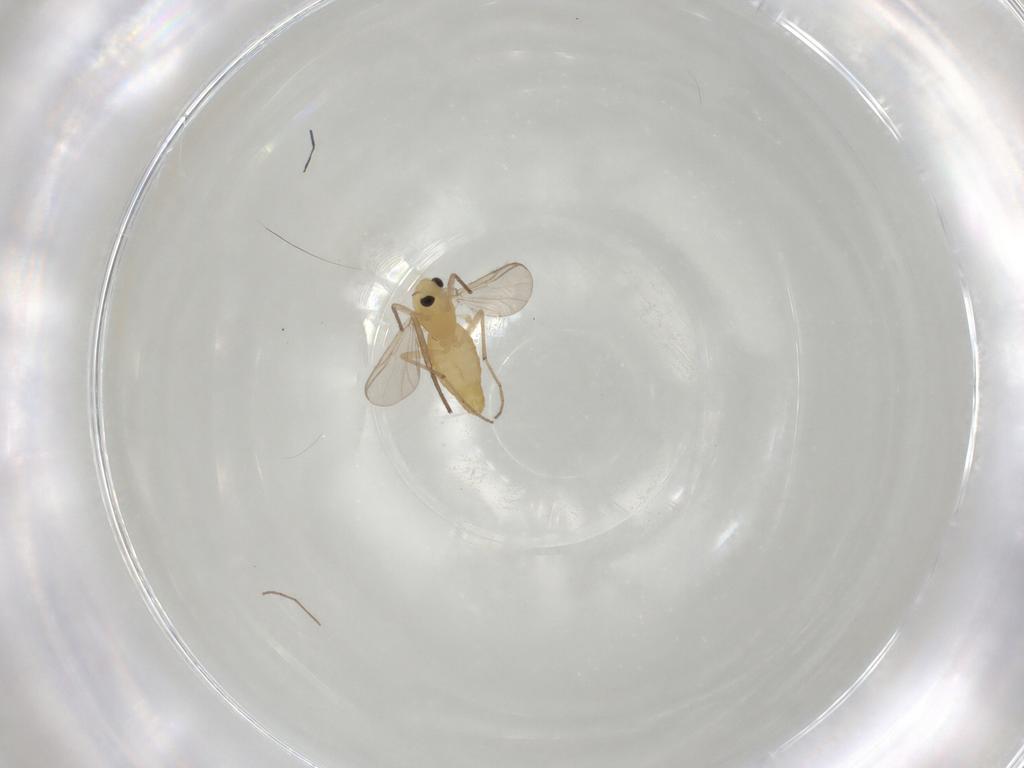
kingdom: Animalia
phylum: Arthropoda
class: Insecta
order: Diptera
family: Chironomidae
